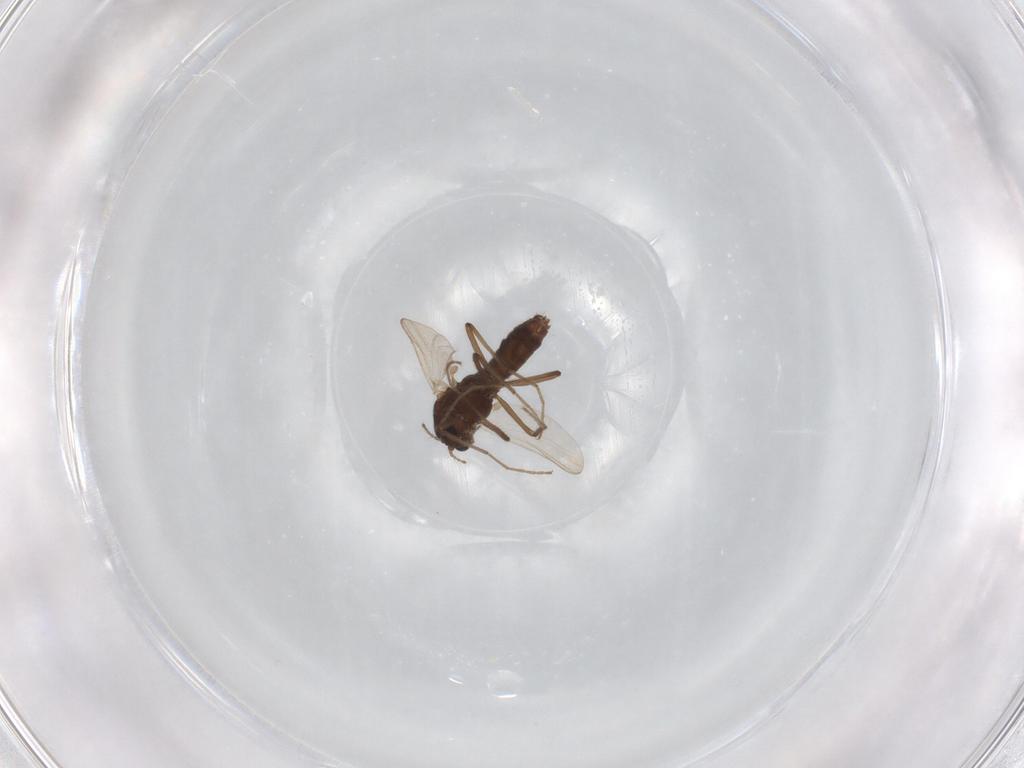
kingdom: Animalia
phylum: Arthropoda
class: Insecta
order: Diptera
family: Chironomidae
